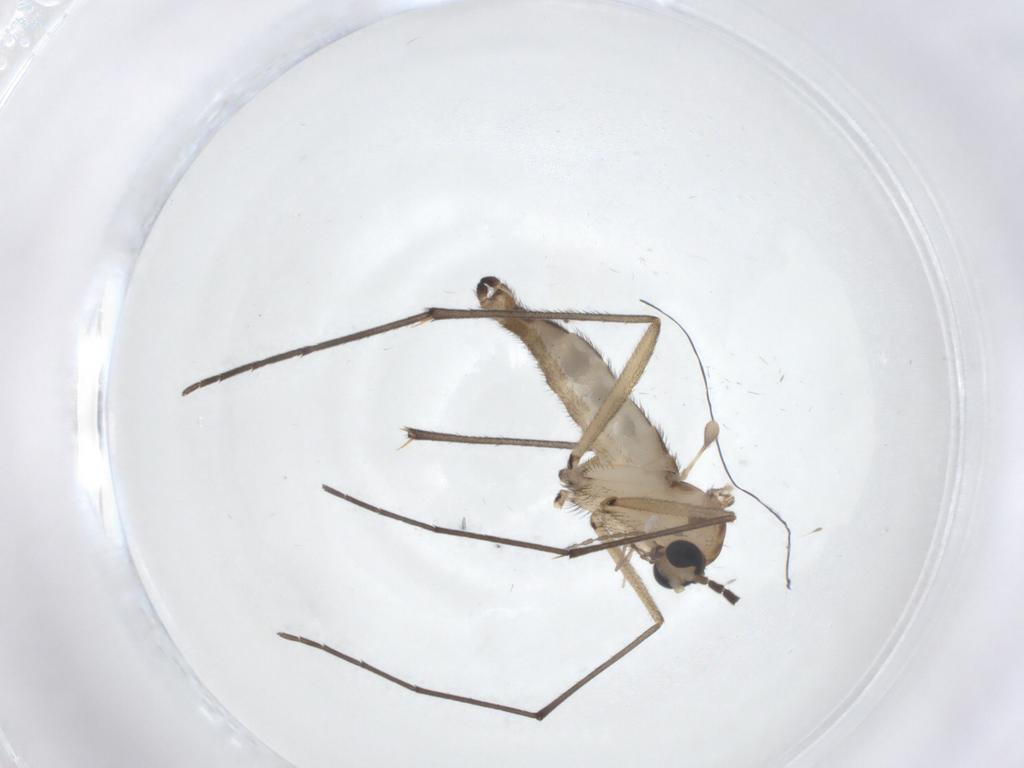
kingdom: Animalia
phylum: Arthropoda
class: Insecta
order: Diptera
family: Sciaridae
